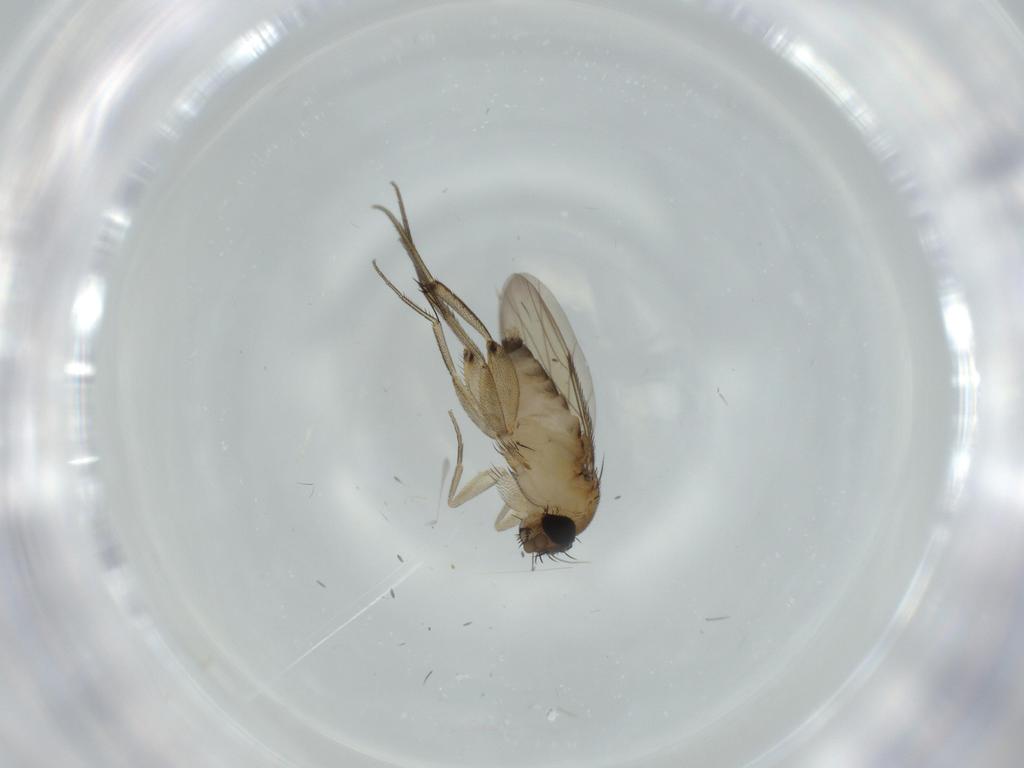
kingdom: Animalia
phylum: Arthropoda
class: Insecta
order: Diptera
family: Phoridae
